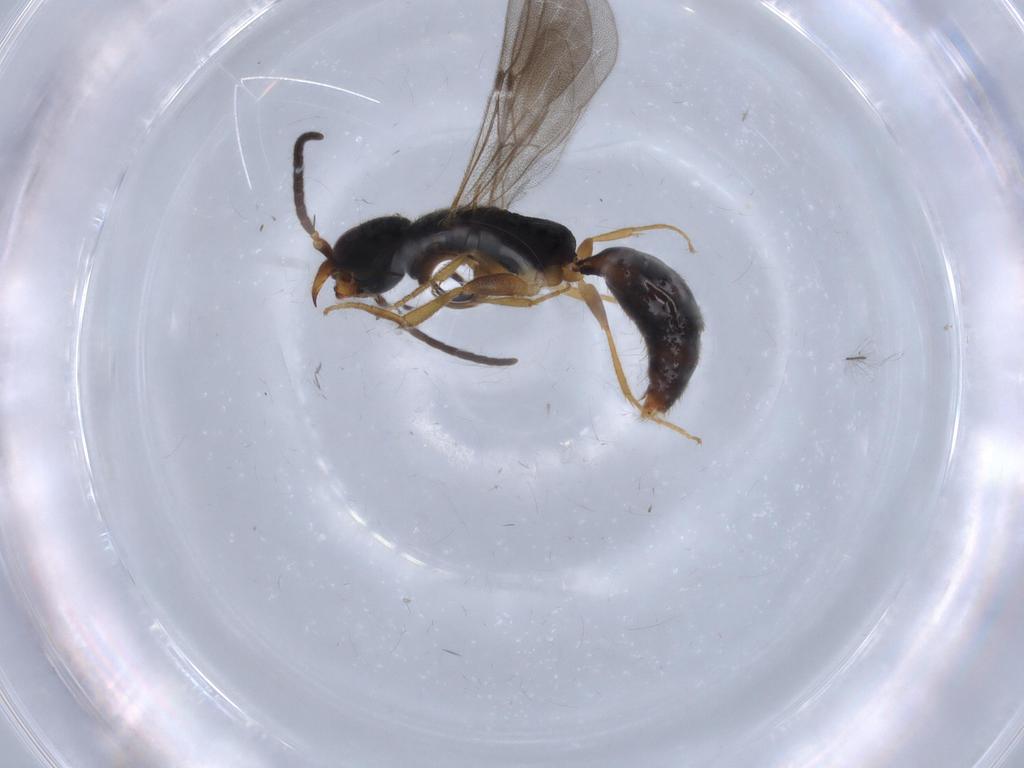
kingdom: Animalia
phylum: Arthropoda
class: Insecta
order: Hymenoptera
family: Bethylidae
